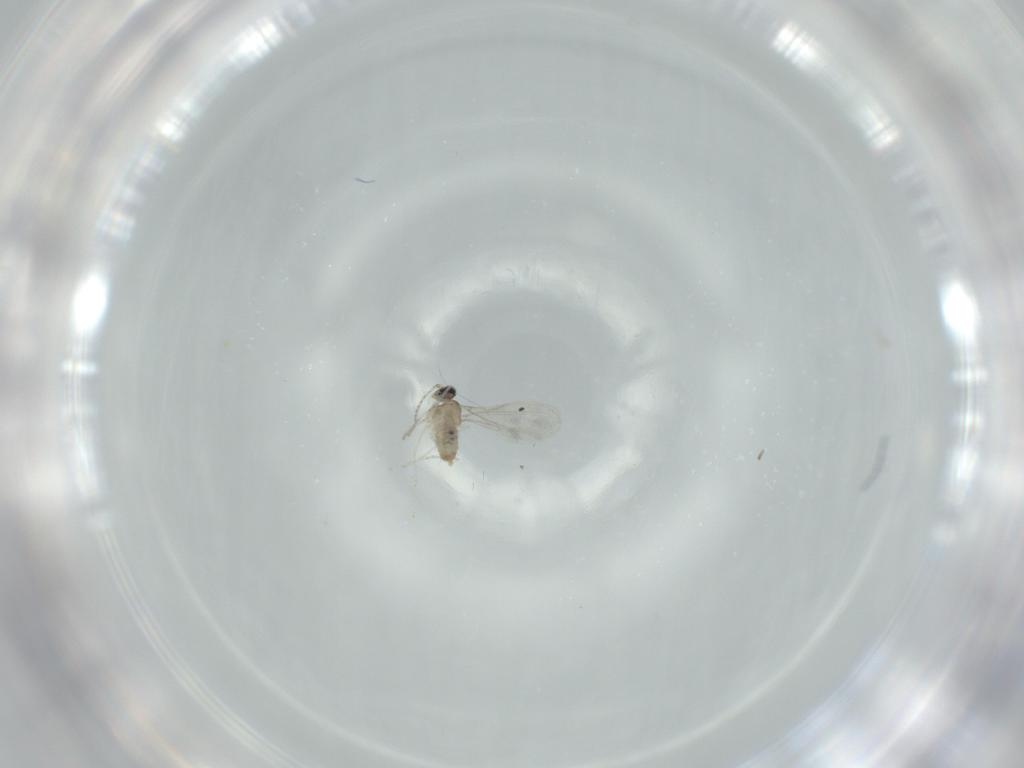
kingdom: Animalia
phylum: Arthropoda
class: Insecta
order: Diptera
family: Cecidomyiidae
